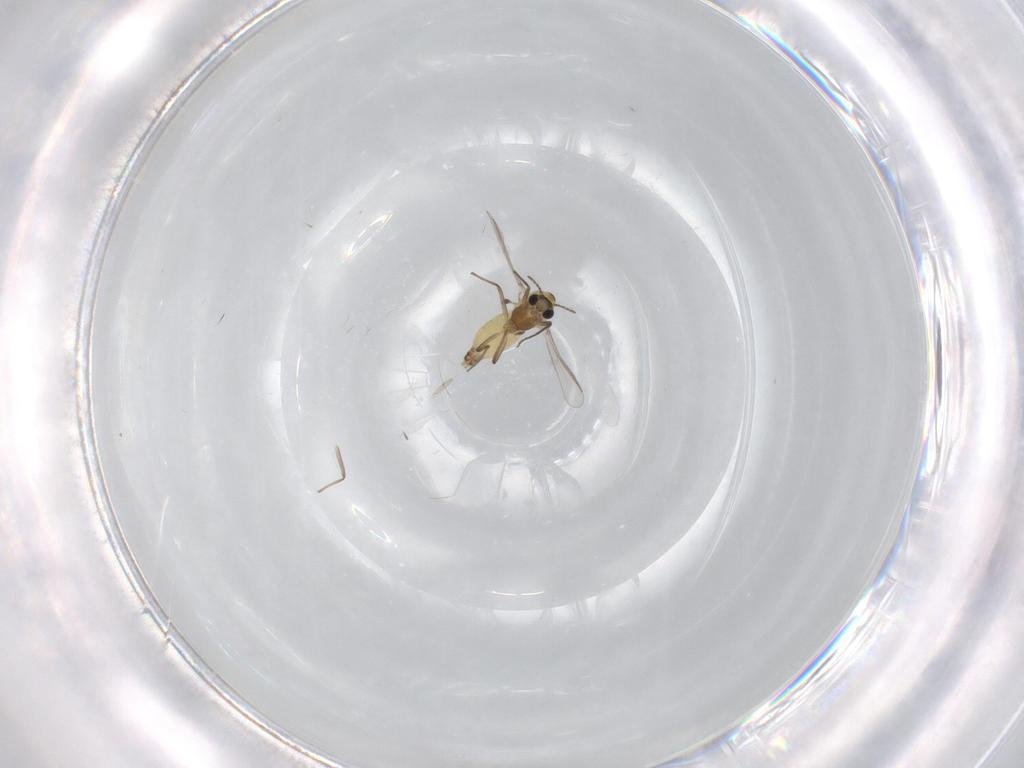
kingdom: Animalia
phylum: Arthropoda
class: Insecta
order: Diptera
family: Chironomidae
